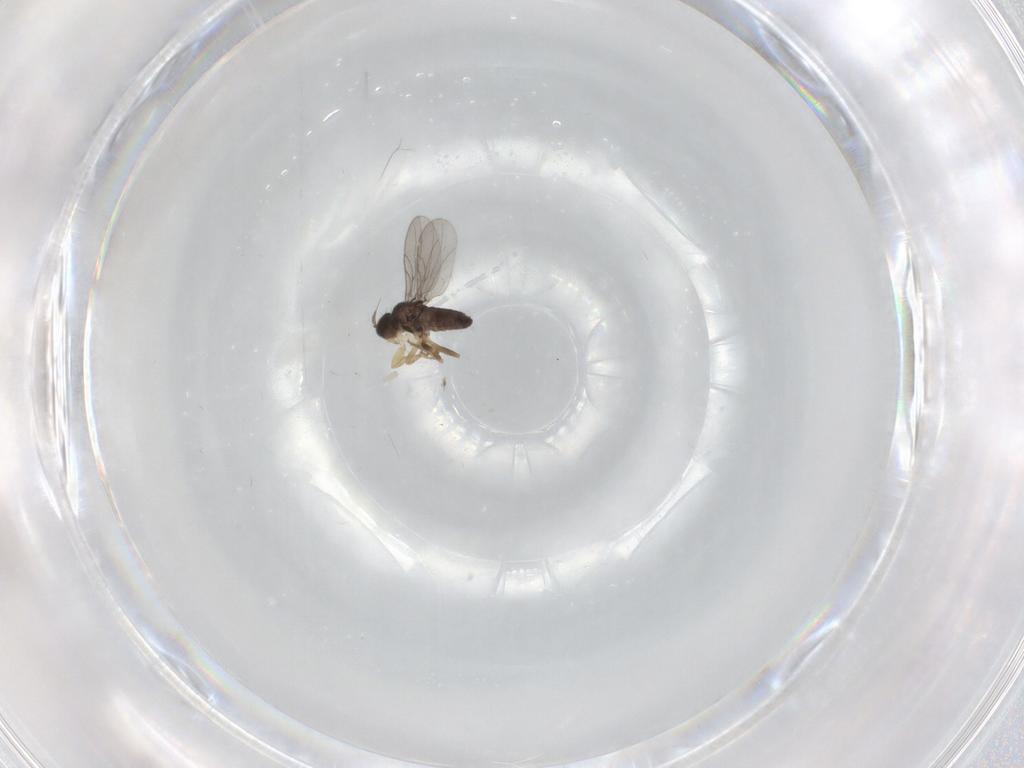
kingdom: Animalia
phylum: Arthropoda
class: Insecta
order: Diptera
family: Hybotidae
